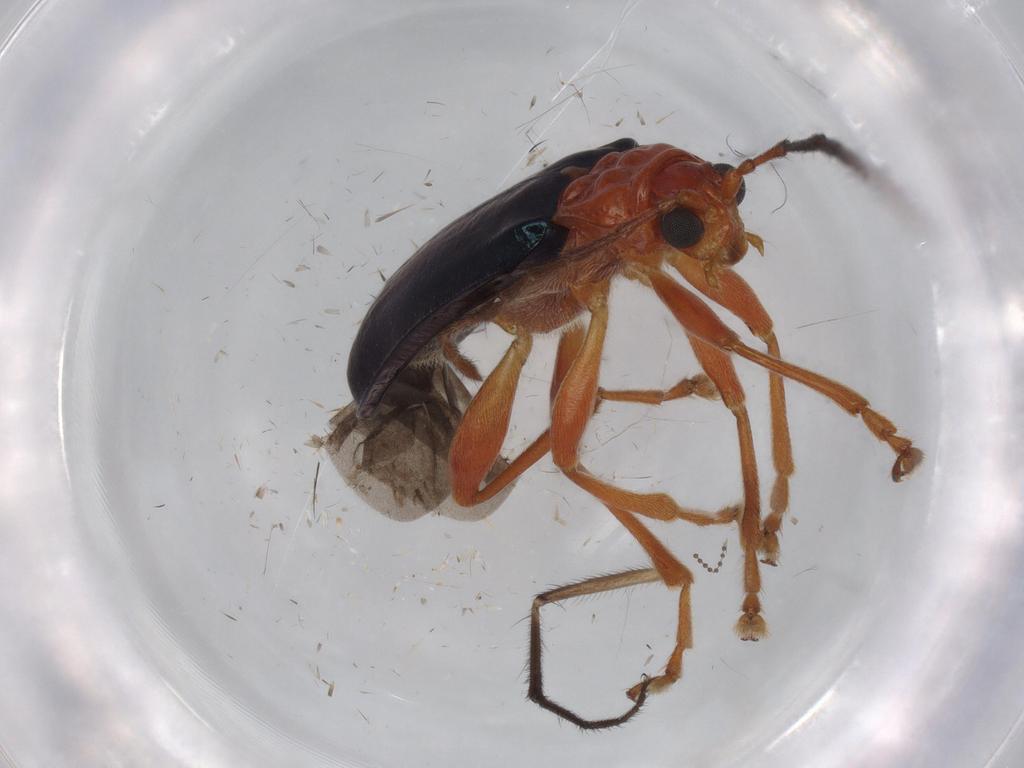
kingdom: Animalia
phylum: Arthropoda
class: Insecta
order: Coleoptera
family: Chrysomelidae
